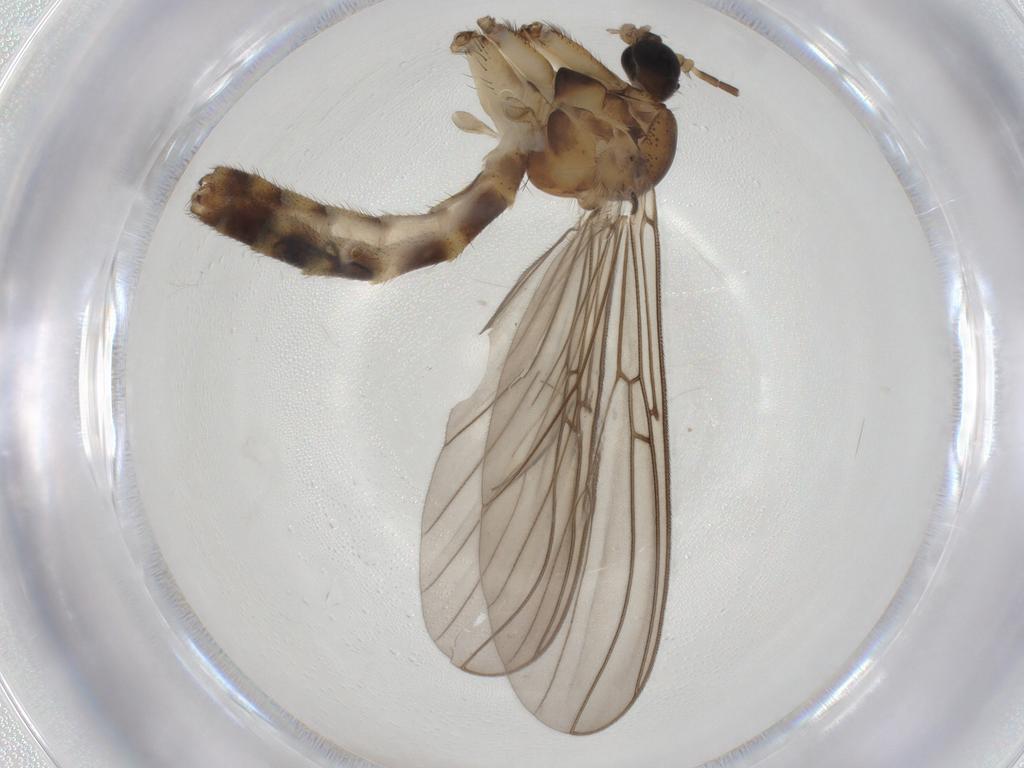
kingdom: Animalia
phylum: Arthropoda
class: Insecta
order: Diptera
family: Mycetophilidae
